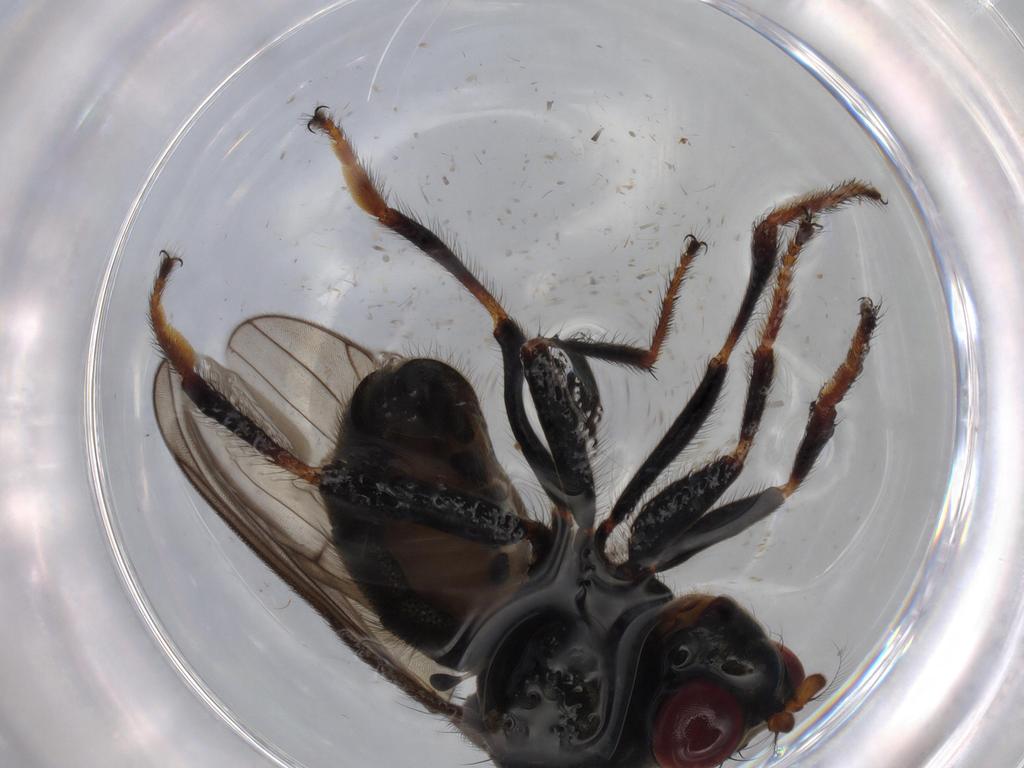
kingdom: Animalia
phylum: Arthropoda
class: Insecta
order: Diptera
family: Ephydridae
